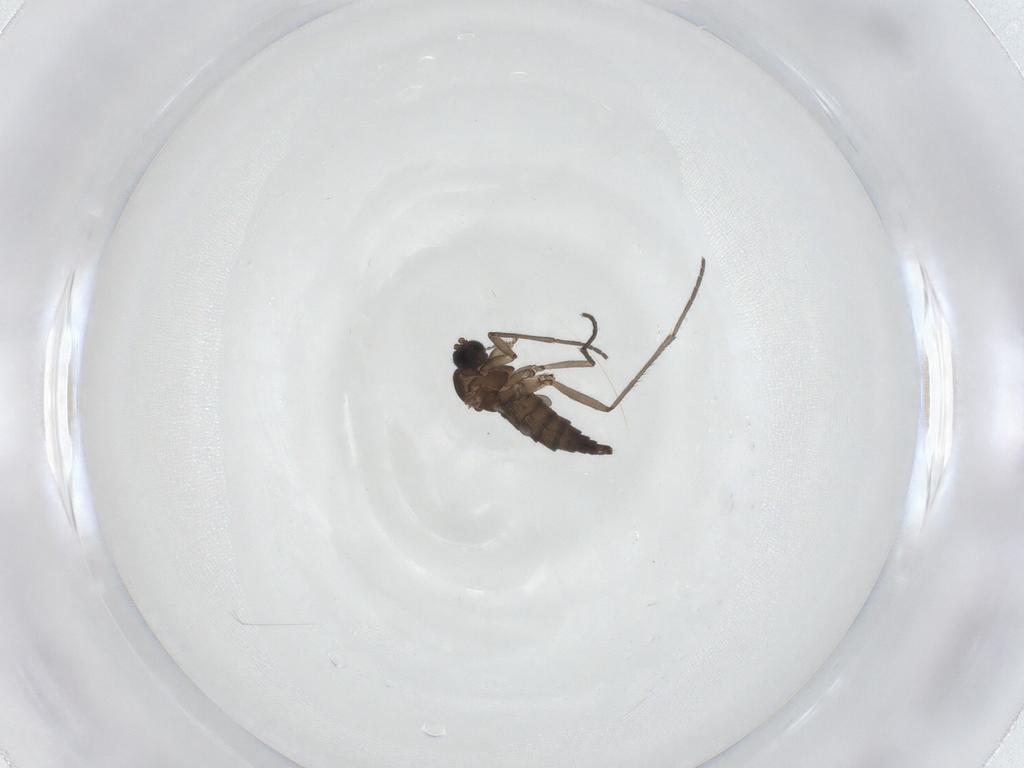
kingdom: Animalia
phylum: Arthropoda
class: Insecta
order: Diptera
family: Sciaridae
